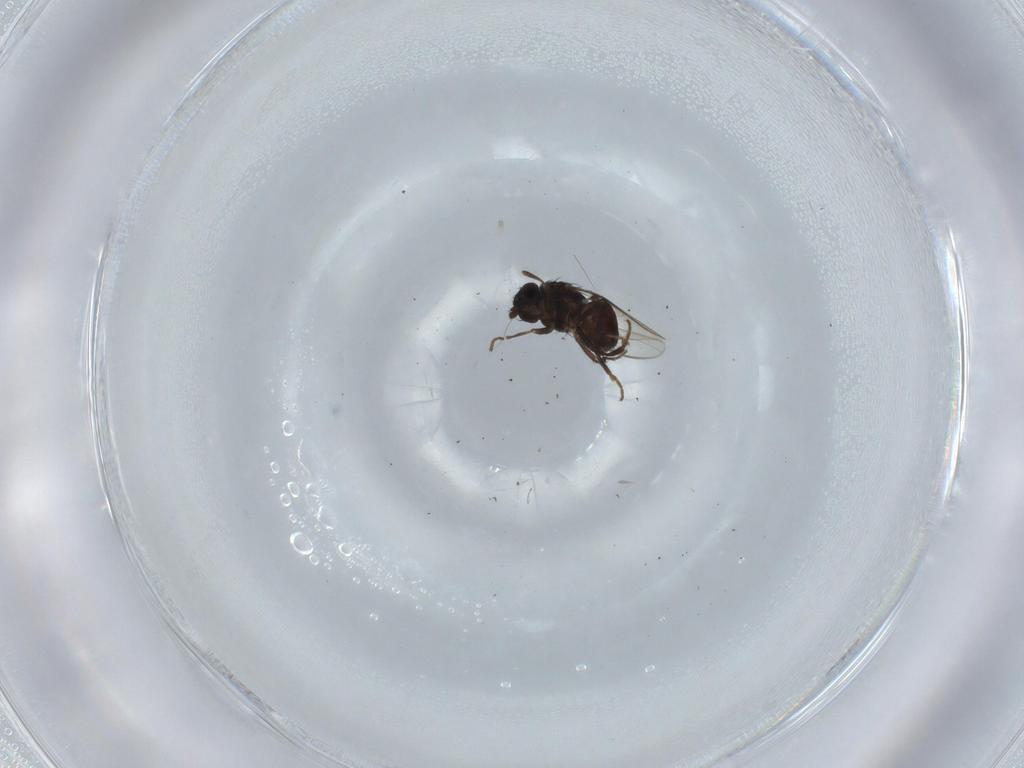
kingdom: Animalia
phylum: Arthropoda
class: Insecta
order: Diptera
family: Sphaeroceridae
